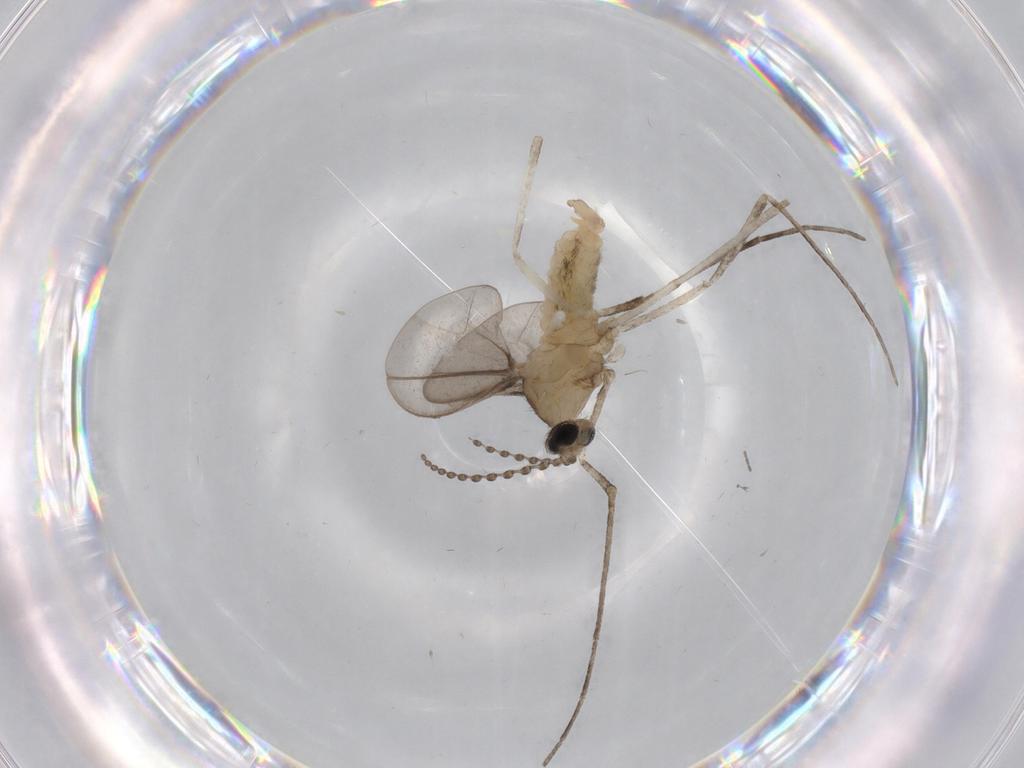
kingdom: Animalia
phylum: Arthropoda
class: Insecta
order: Diptera
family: Cecidomyiidae
